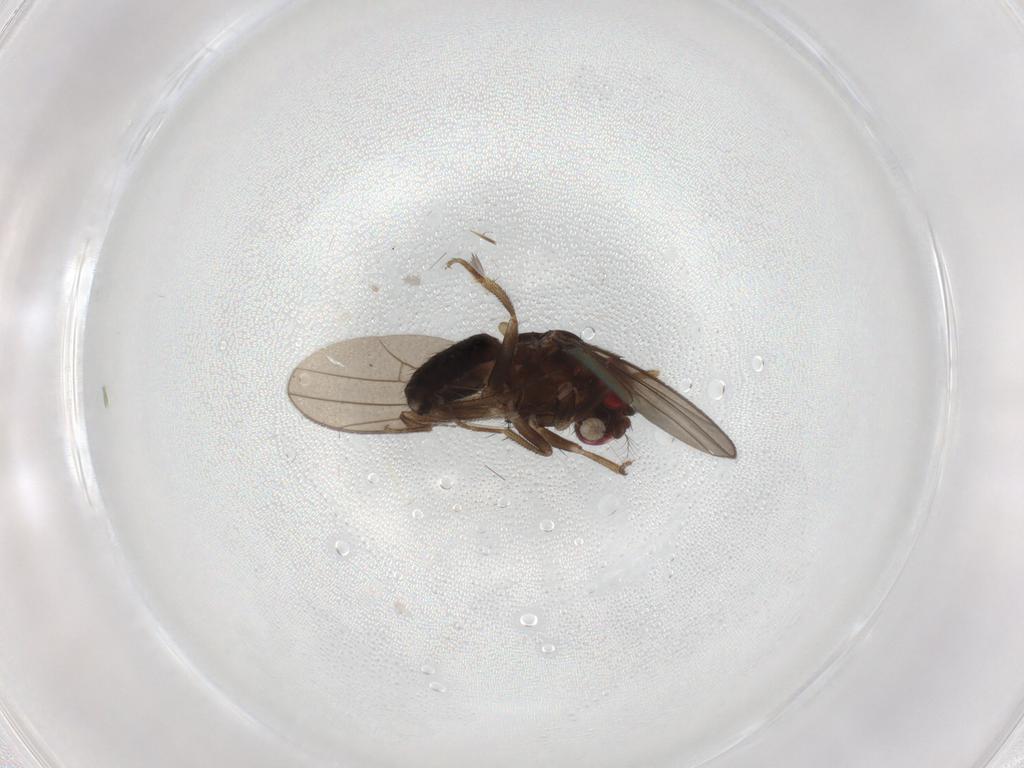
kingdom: Animalia
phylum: Arthropoda
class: Insecta
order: Diptera
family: Drosophilidae
